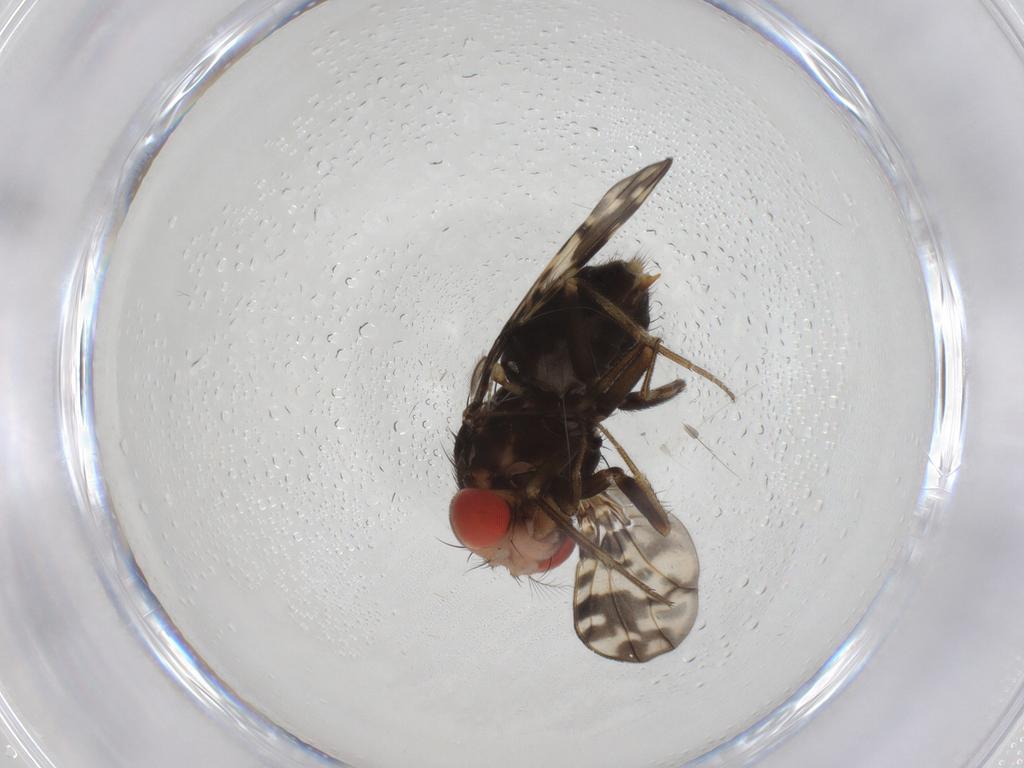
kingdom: Animalia
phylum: Arthropoda
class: Insecta
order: Diptera
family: Drosophilidae
